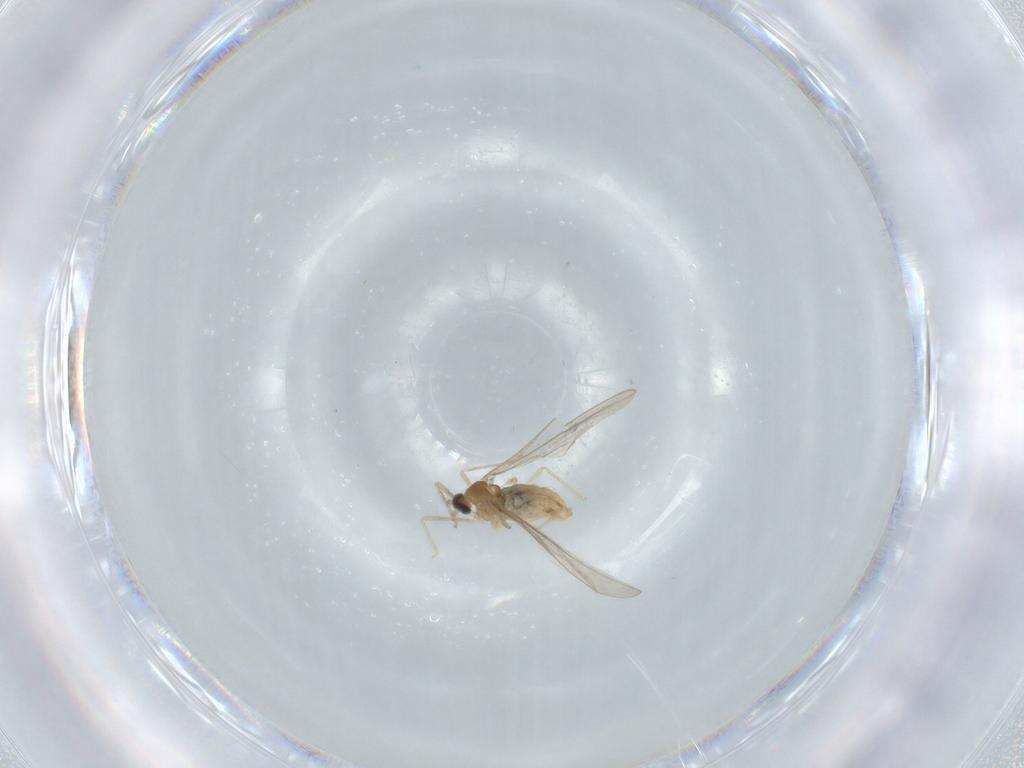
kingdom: Animalia
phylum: Arthropoda
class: Insecta
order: Diptera
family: Cecidomyiidae
